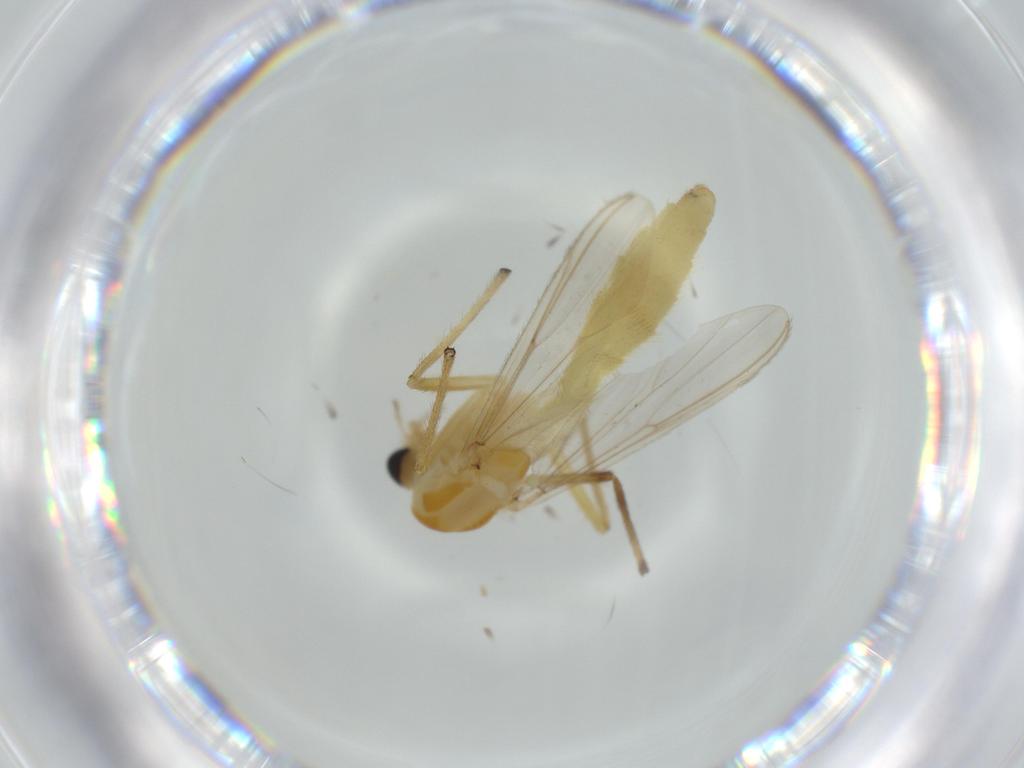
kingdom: Animalia
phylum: Arthropoda
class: Insecta
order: Diptera
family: Hybotidae
